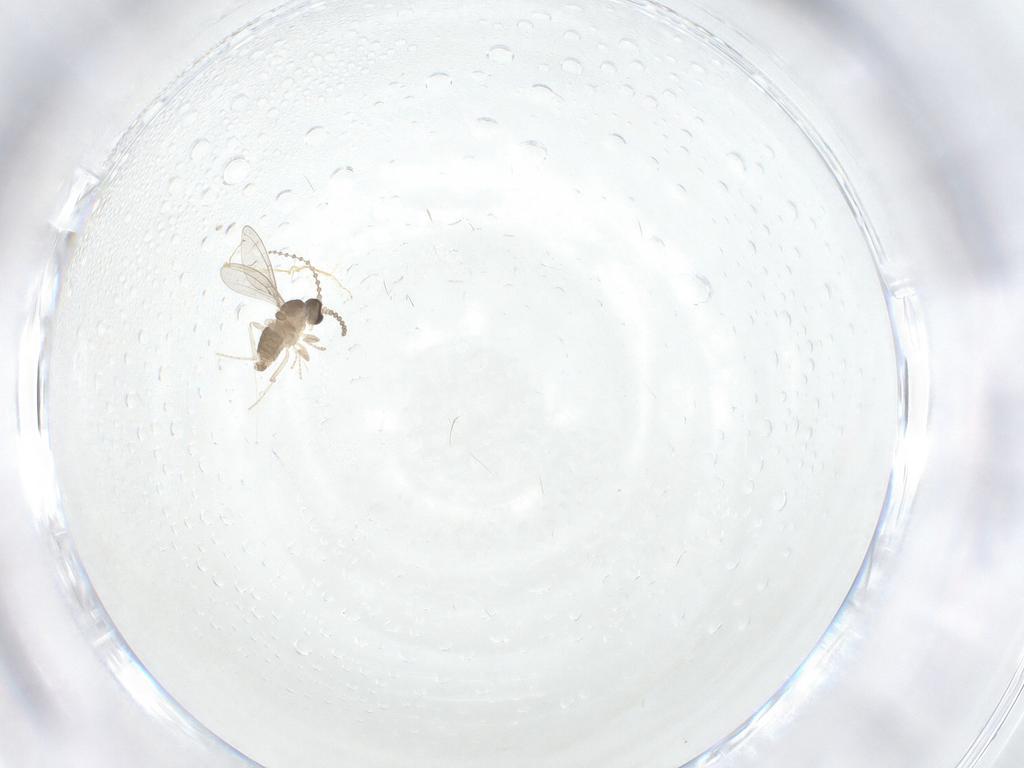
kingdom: Animalia
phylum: Arthropoda
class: Insecta
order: Diptera
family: Cecidomyiidae
